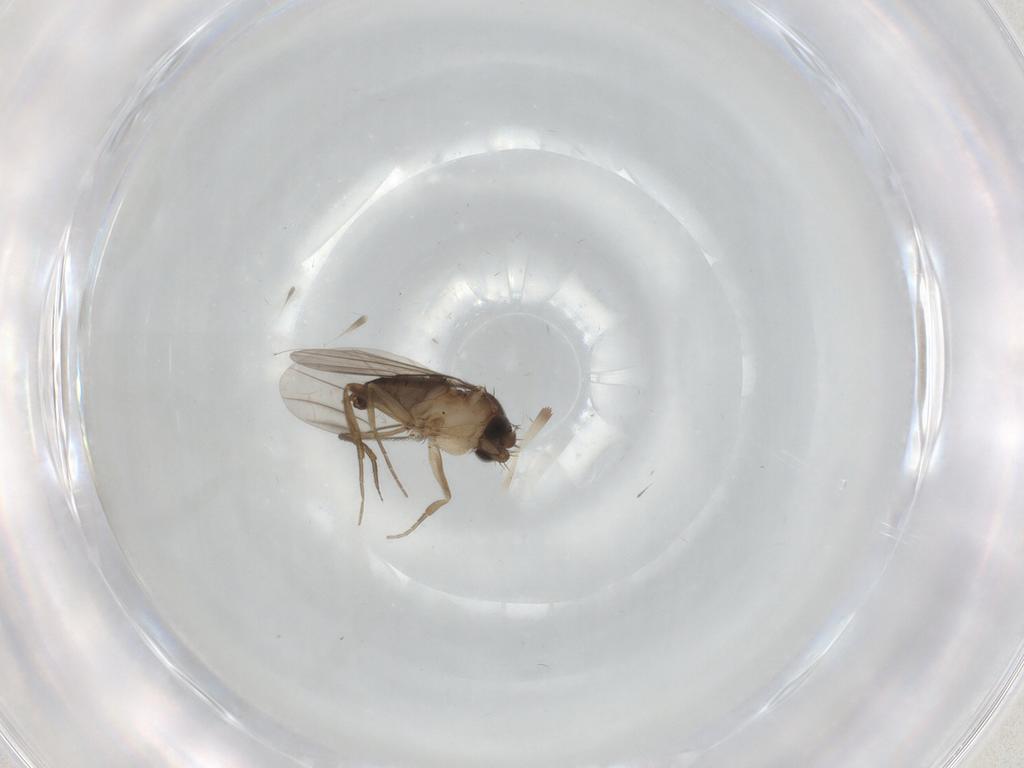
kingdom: Animalia
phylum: Arthropoda
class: Insecta
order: Diptera
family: Phoridae
